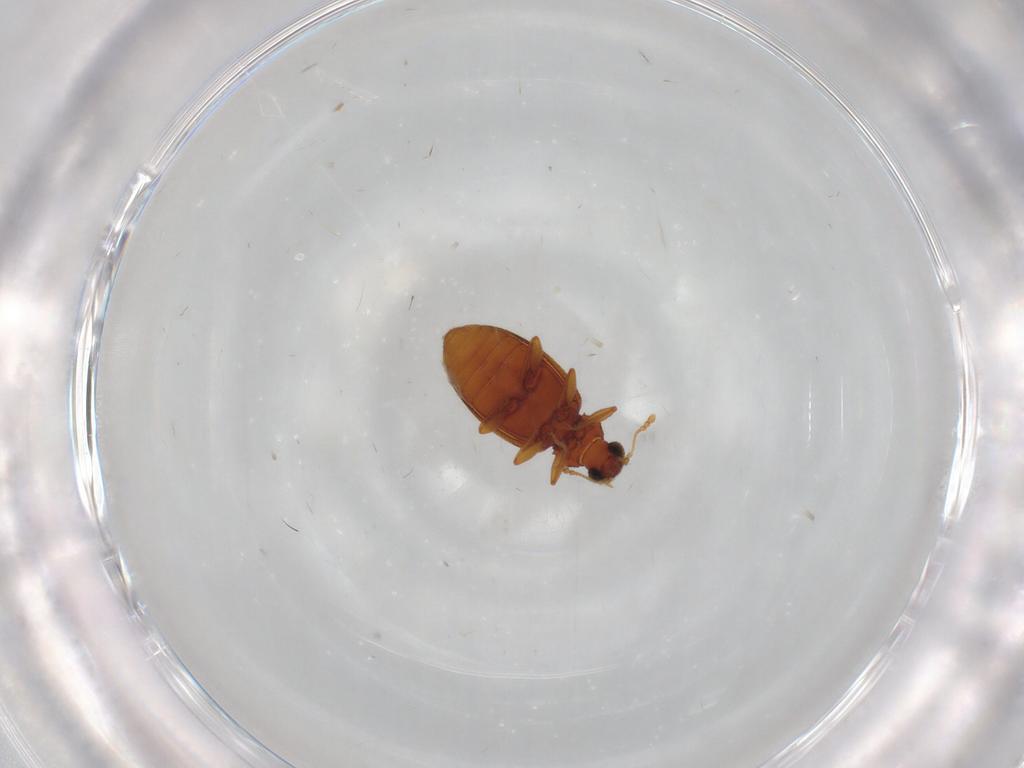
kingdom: Animalia
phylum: Arthropoda
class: Insecta
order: Coleoptera
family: Latridiidae
